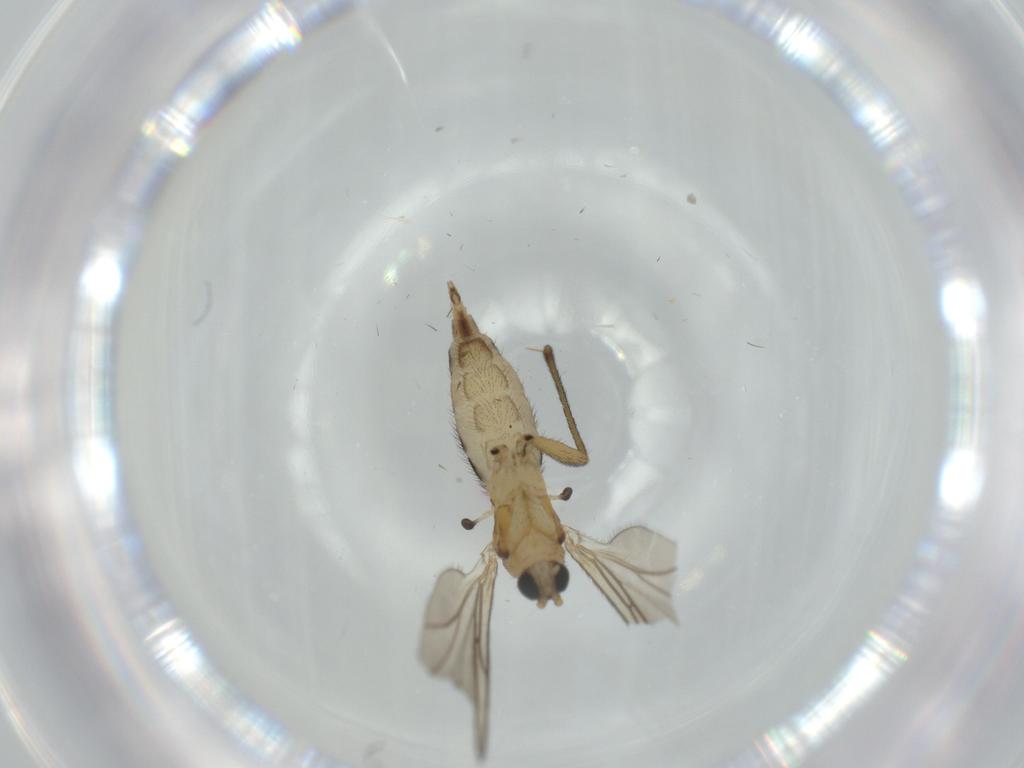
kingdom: Animalia
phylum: Arthropoda
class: Insecta
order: Diptera
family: Sciaridae
